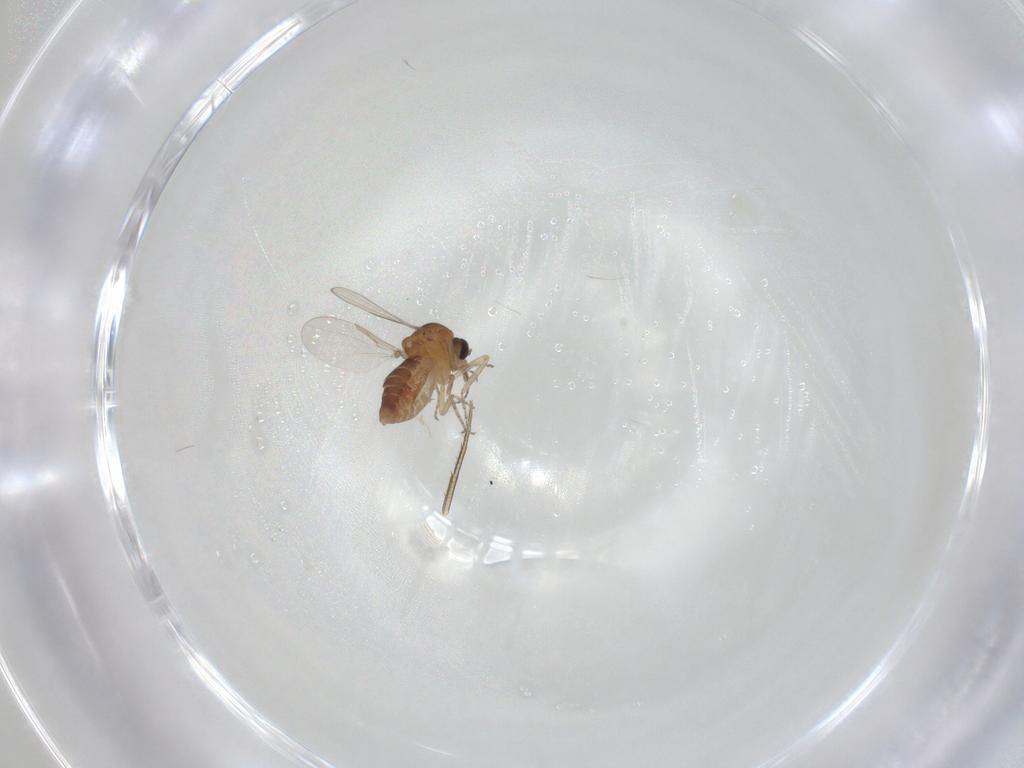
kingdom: Animalia
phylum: Arthropoda
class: Insecta
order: Diptera
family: Ceratopogonidae
